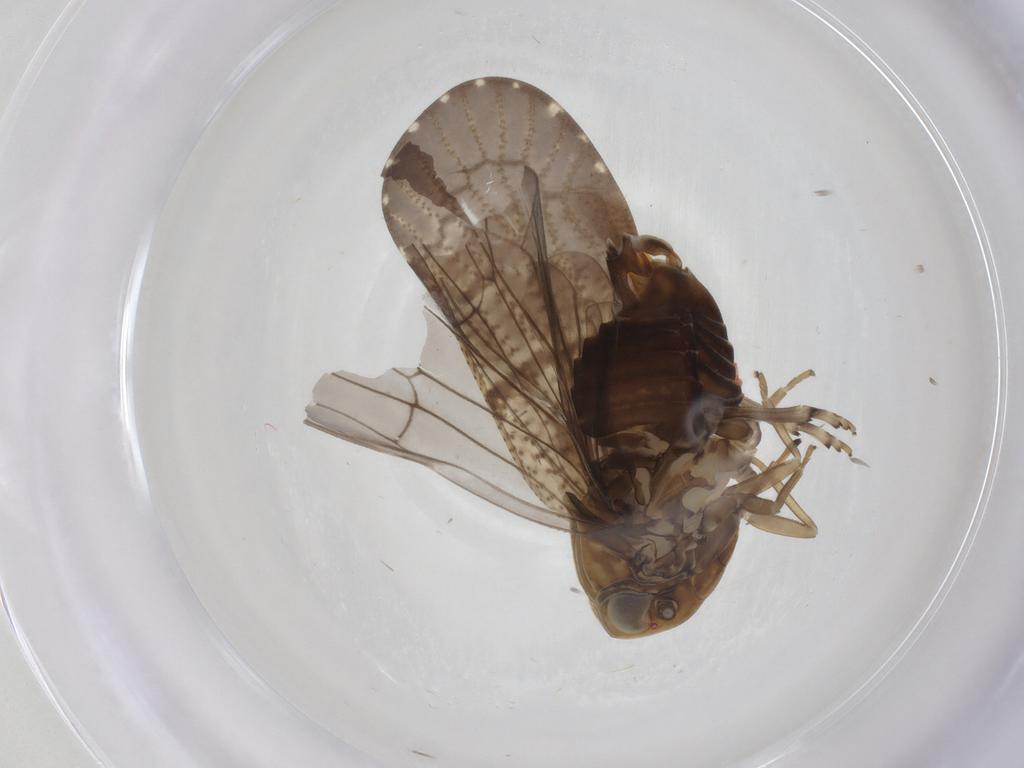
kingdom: Animalia
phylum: Arthropoda
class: Insecta
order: Hemiptera
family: Cixiidae
